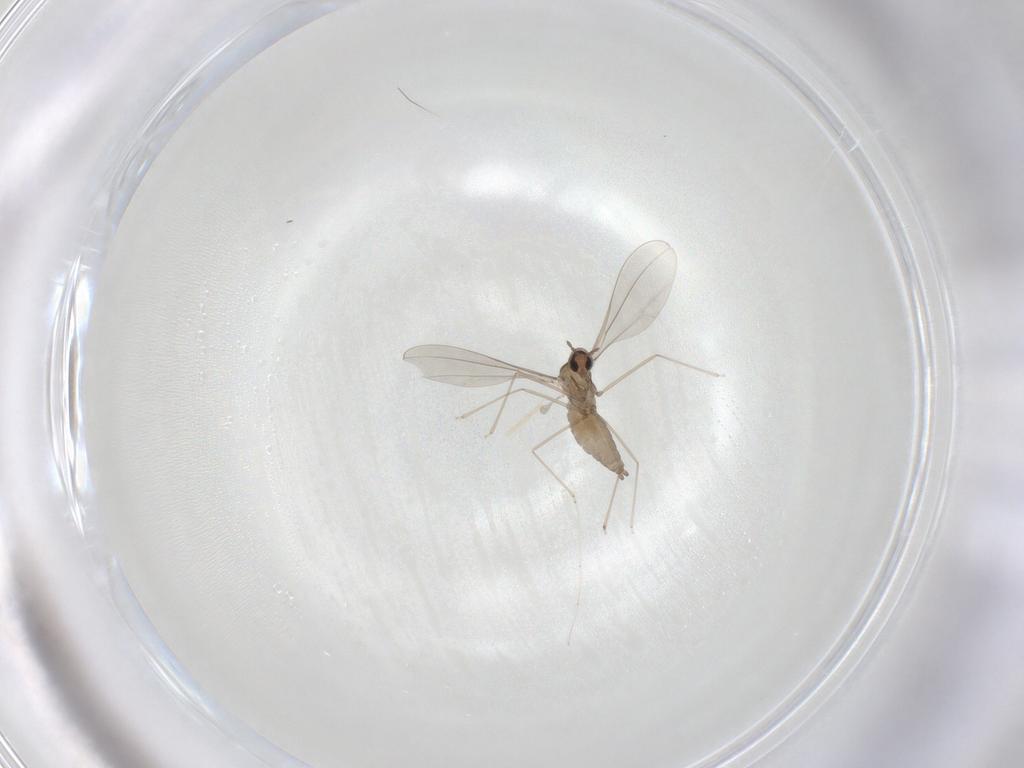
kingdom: Animalia
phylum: Arthropoda
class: Insecta
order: Diptera
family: Cecidomyiidae
